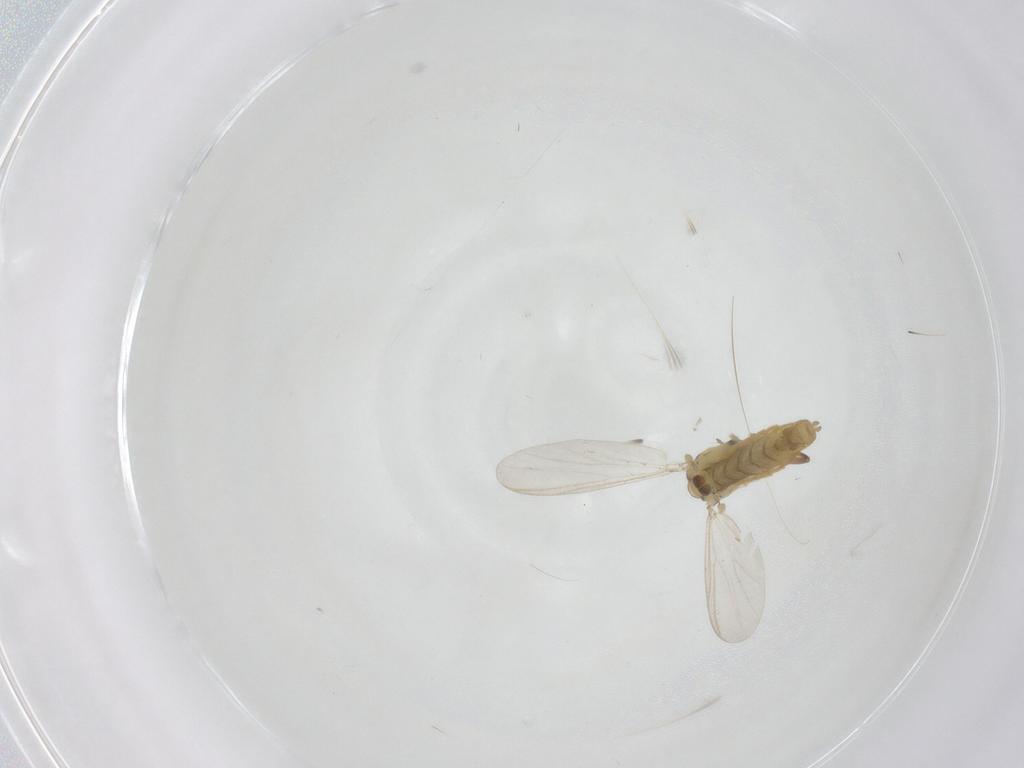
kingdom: Animalia
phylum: Arthropoda
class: Insecta
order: Diptera
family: Chironomidae
